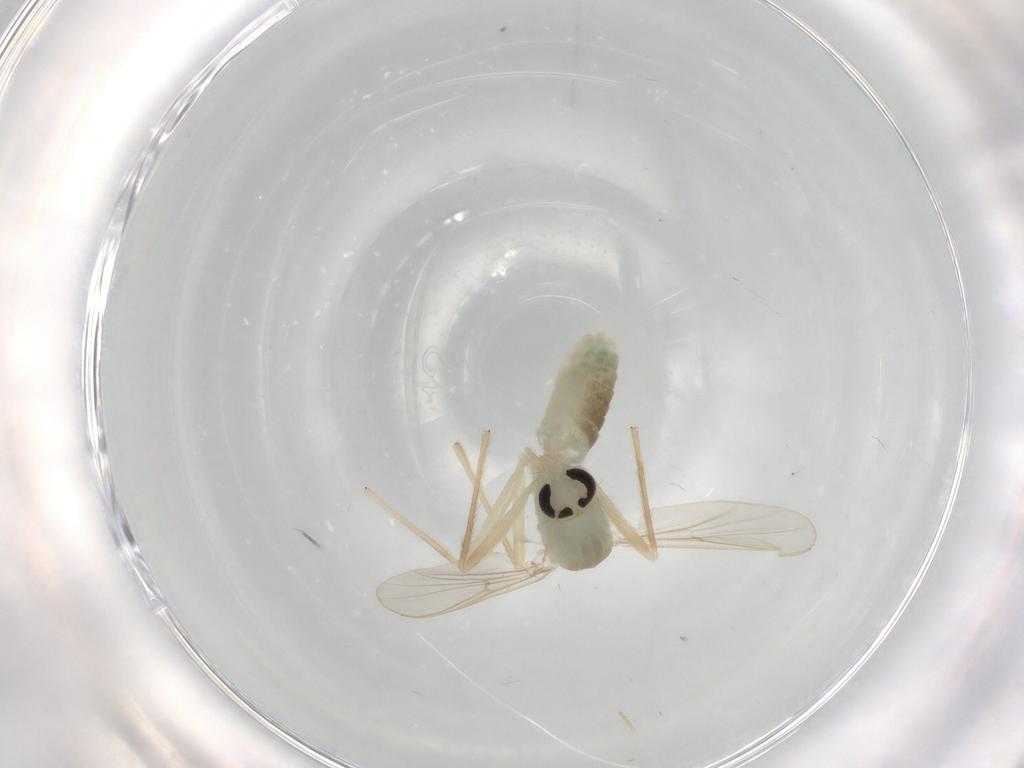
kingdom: Animalia
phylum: Arthropoda
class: Insecta
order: Diptera
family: Chironomidae
